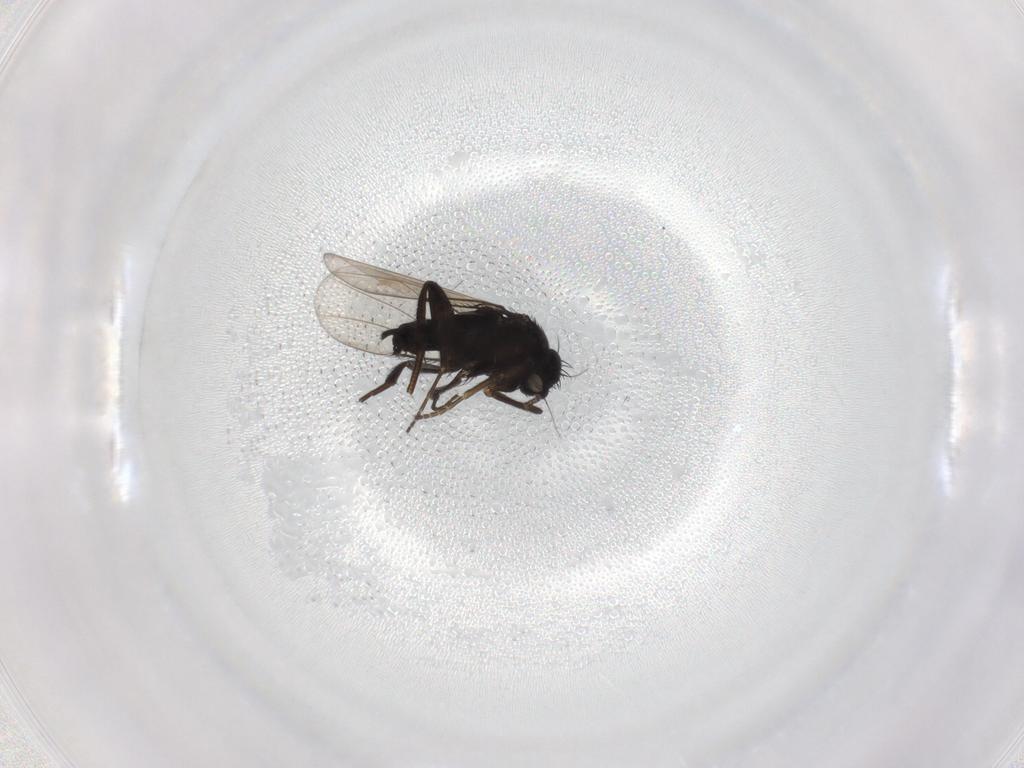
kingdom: Animalia
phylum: Arthropoda
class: Insecta
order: Diptera
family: Phoridae
